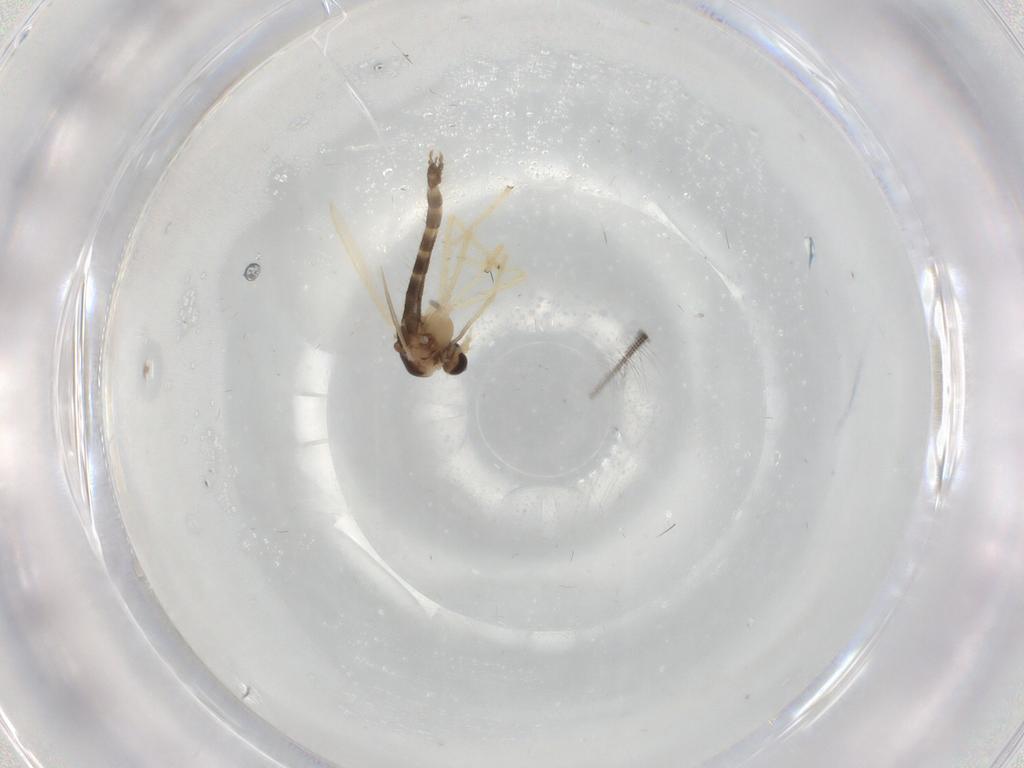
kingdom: Animalia
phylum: Arthropoda
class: Insecta
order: Diptera
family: Chironomidae
